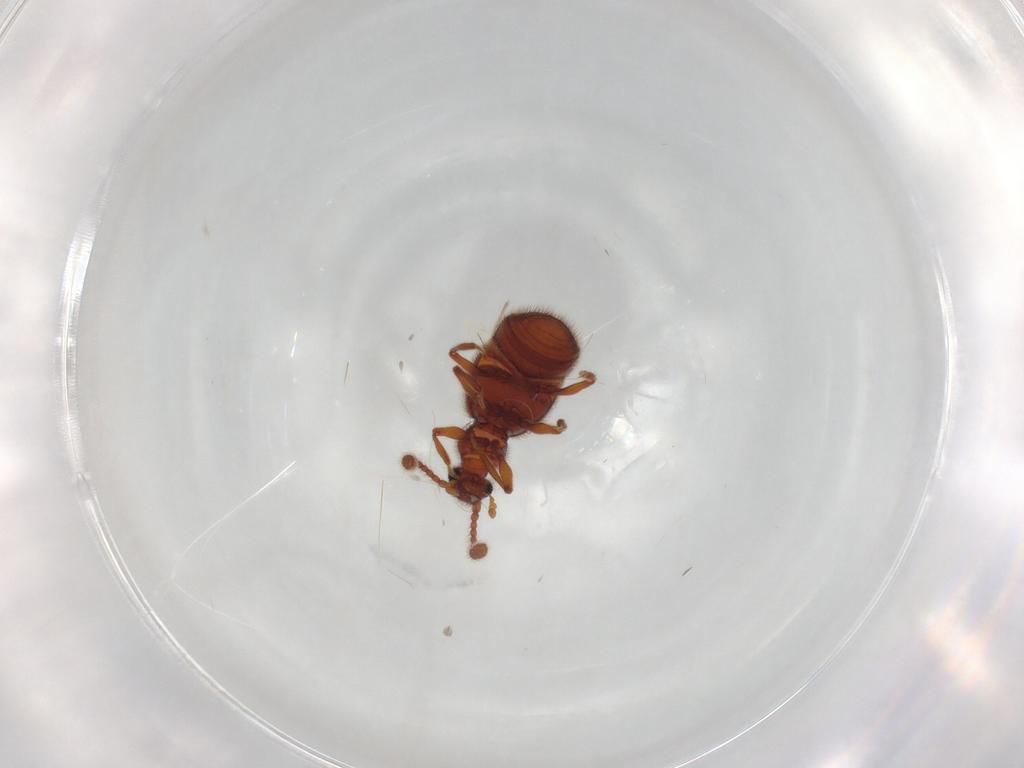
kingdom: Animalia
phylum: Arthropoda
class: Insecta
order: Coleoptera
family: Staphylinidae
